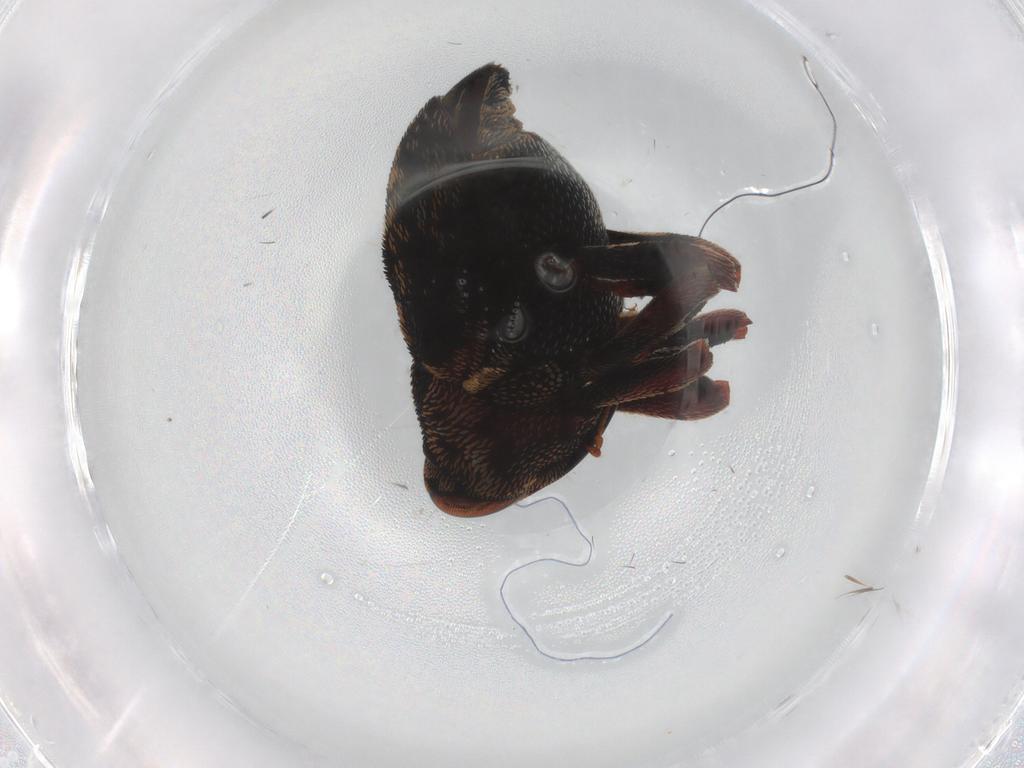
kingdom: Animalia
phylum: Arthropoda
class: Insecta
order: Coleoptera
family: Curculionidae
